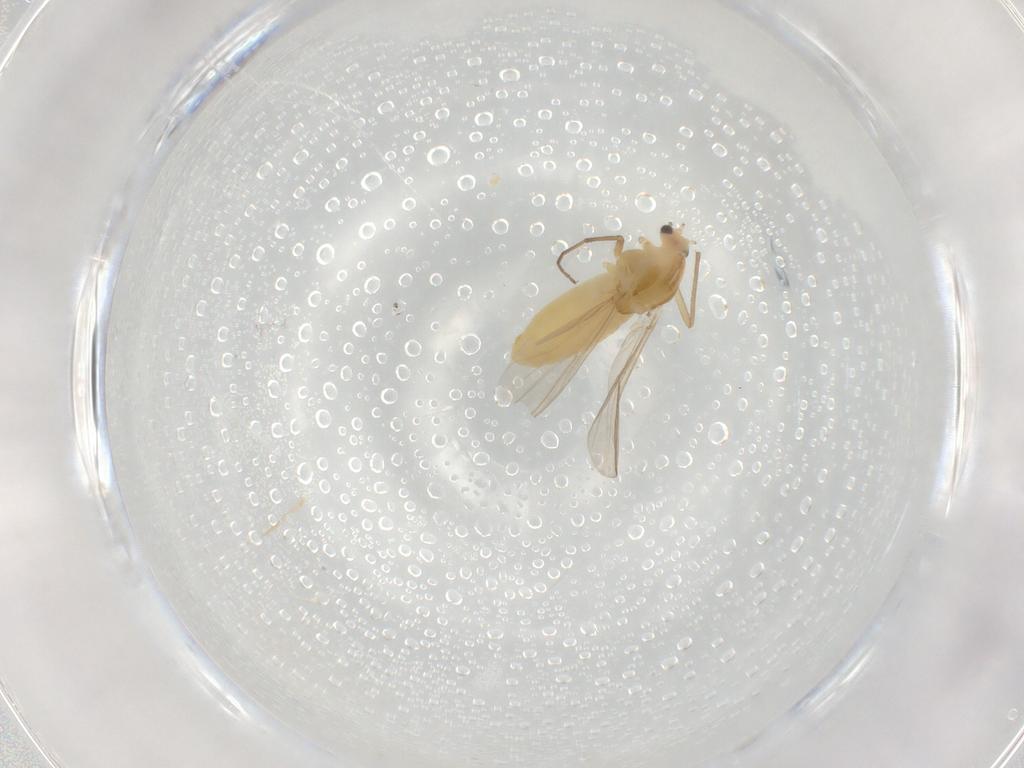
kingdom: Animalia
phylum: Arthropoda
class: Insecta
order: Diptera
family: Chironomidae
